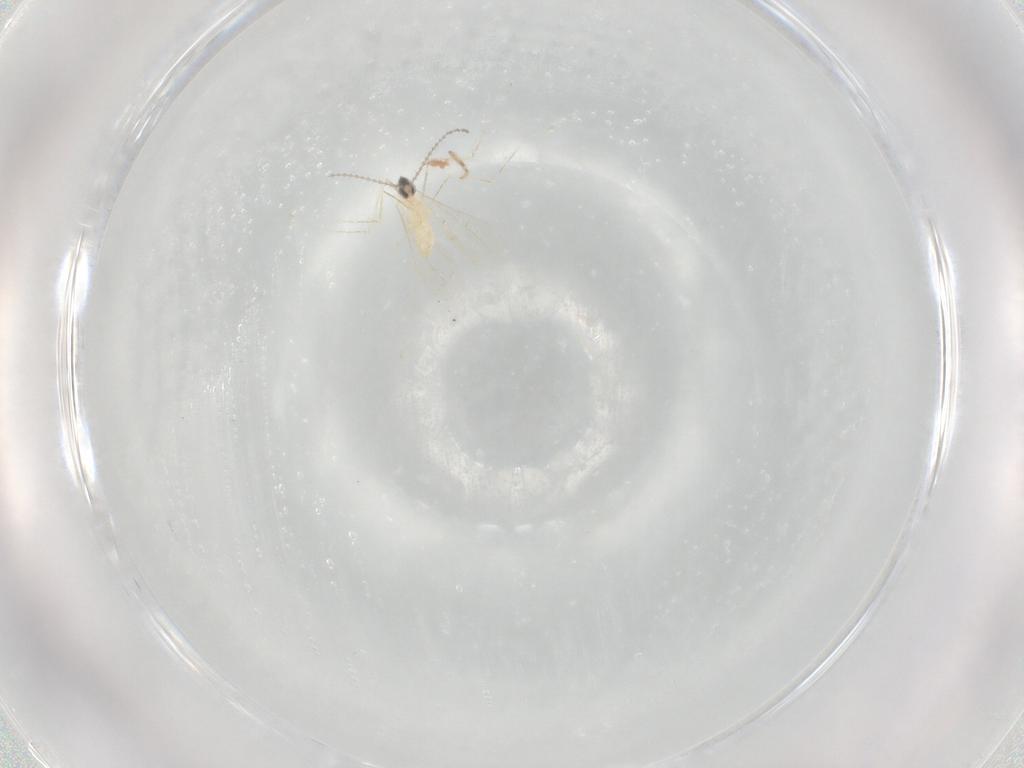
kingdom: Animalia
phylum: Arthropoda
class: Insecta
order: Diptera
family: Cecidomyiidae
